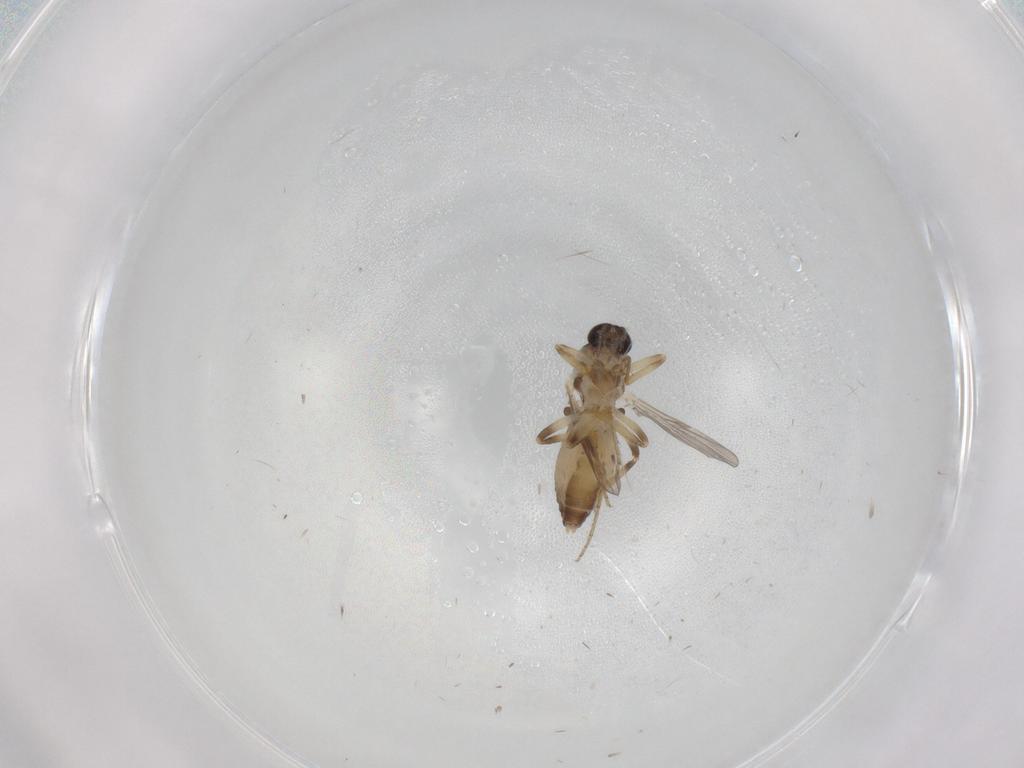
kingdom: Animalia
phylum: Arthropoda
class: Insecta
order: Diptera
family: Ceratopogonidae
